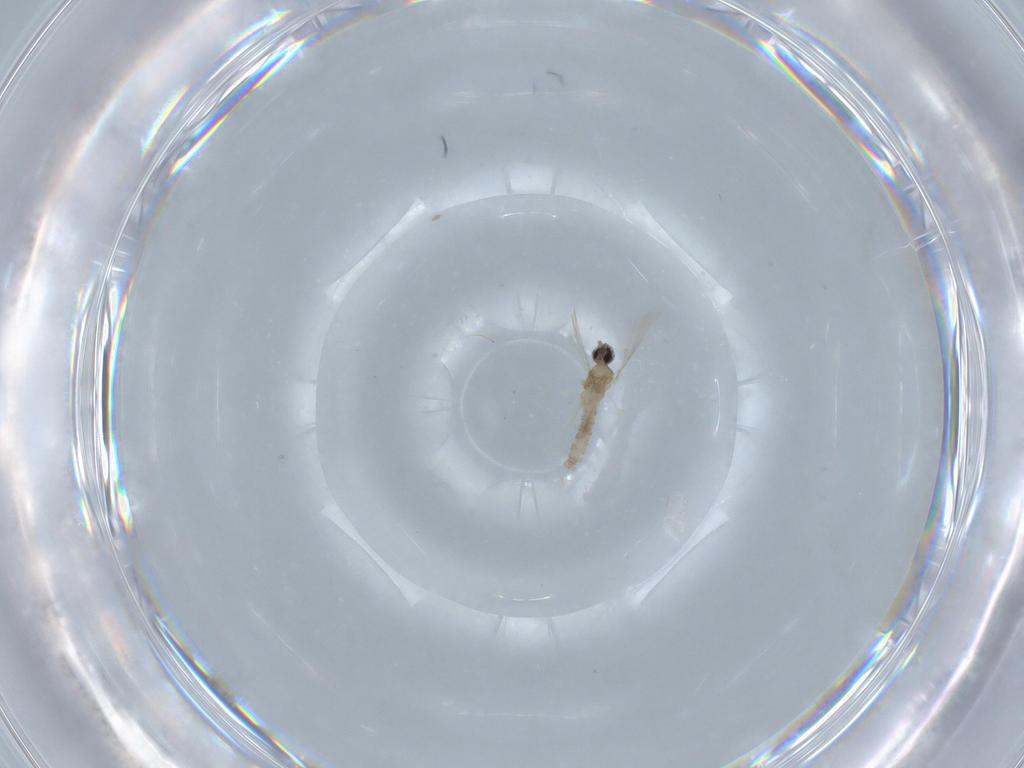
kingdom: Animalia
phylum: Arthropoda
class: Insecta
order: Diptera
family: Cecidomyiidae
